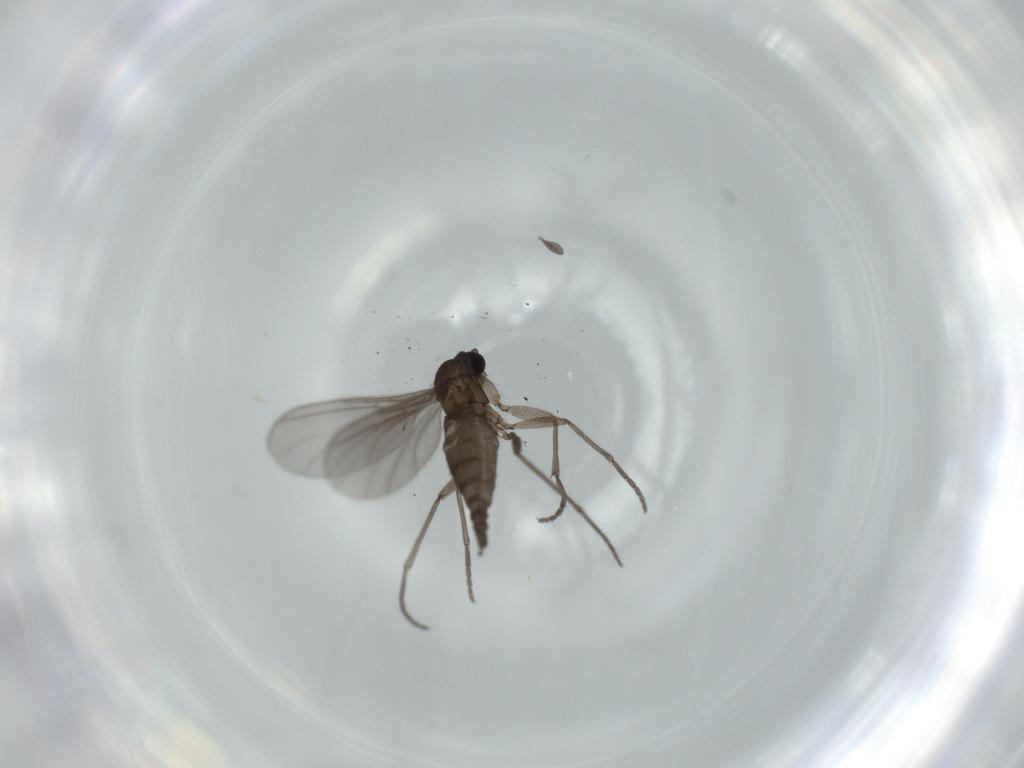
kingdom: Animalia
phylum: Arthropoda
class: Insecta
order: Diptera
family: Sciaridae
